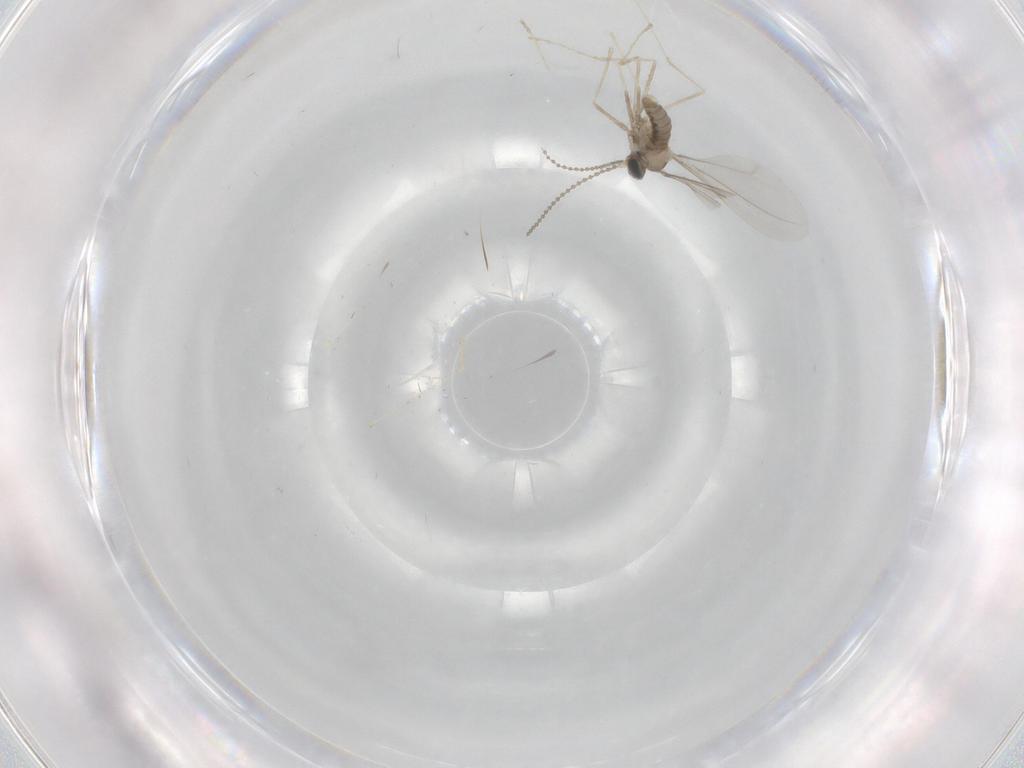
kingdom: Animalia
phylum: Arthropoda
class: Insecta
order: Diptera
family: Cecidomyiidae
